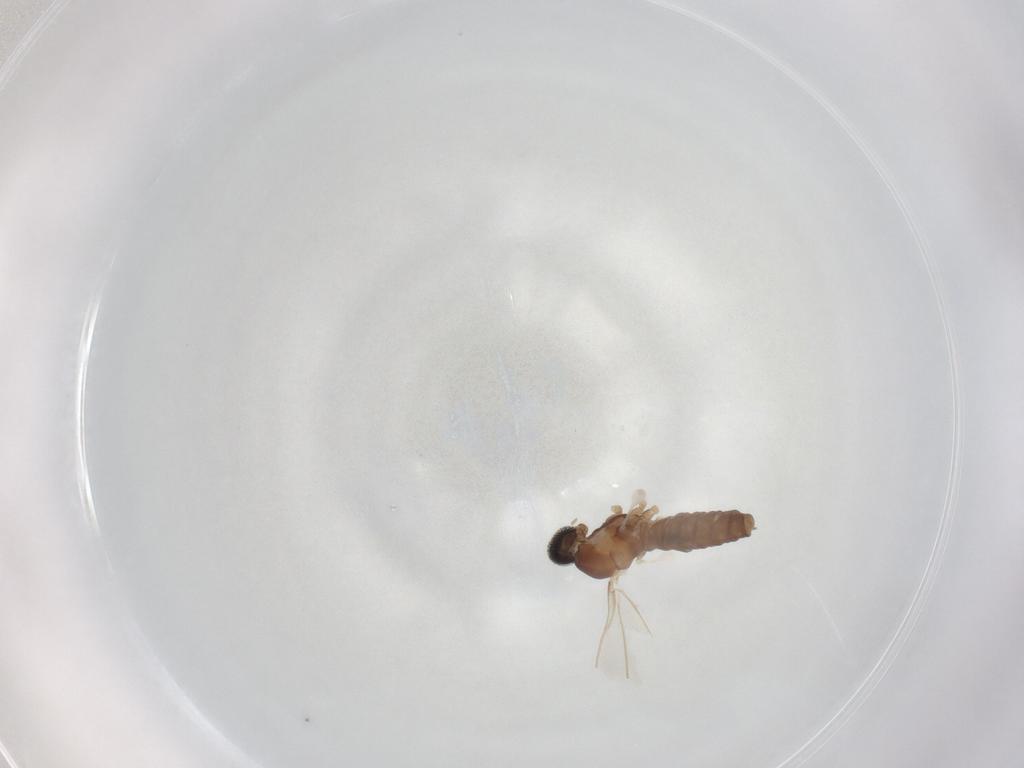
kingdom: Animalia
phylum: Arthropoda
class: Insecta
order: Diptera
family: Cecidomyiidae
